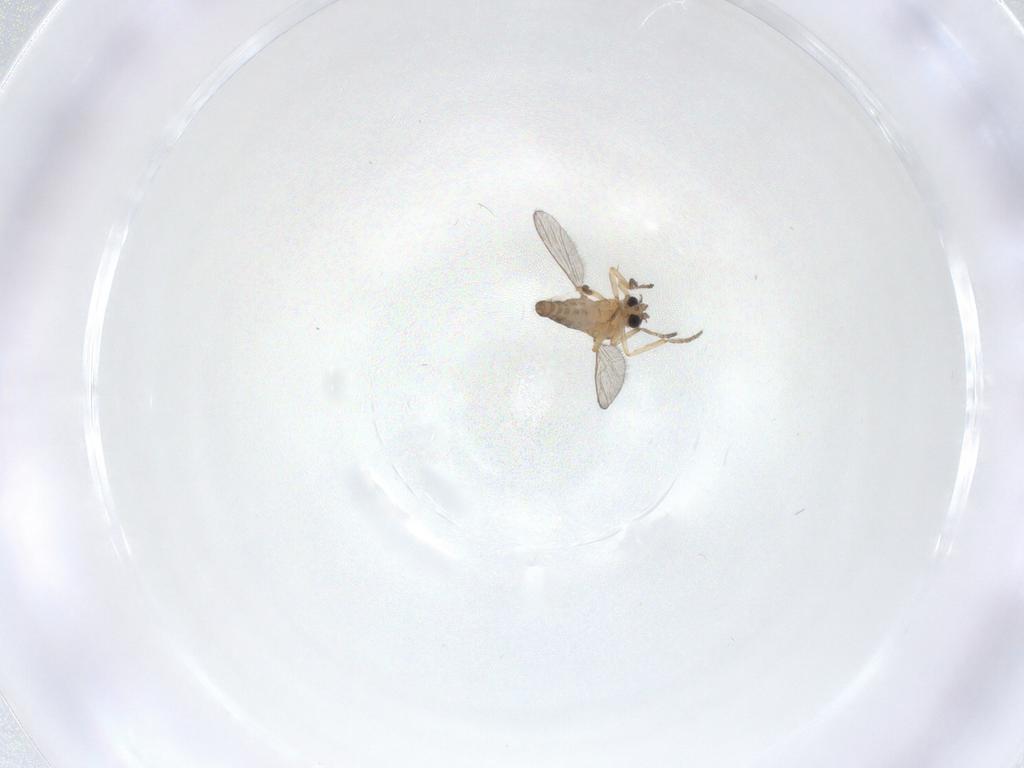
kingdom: Animalia
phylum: Arthropoda
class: Insecta
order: Diptera
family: Ceratopogonidae
